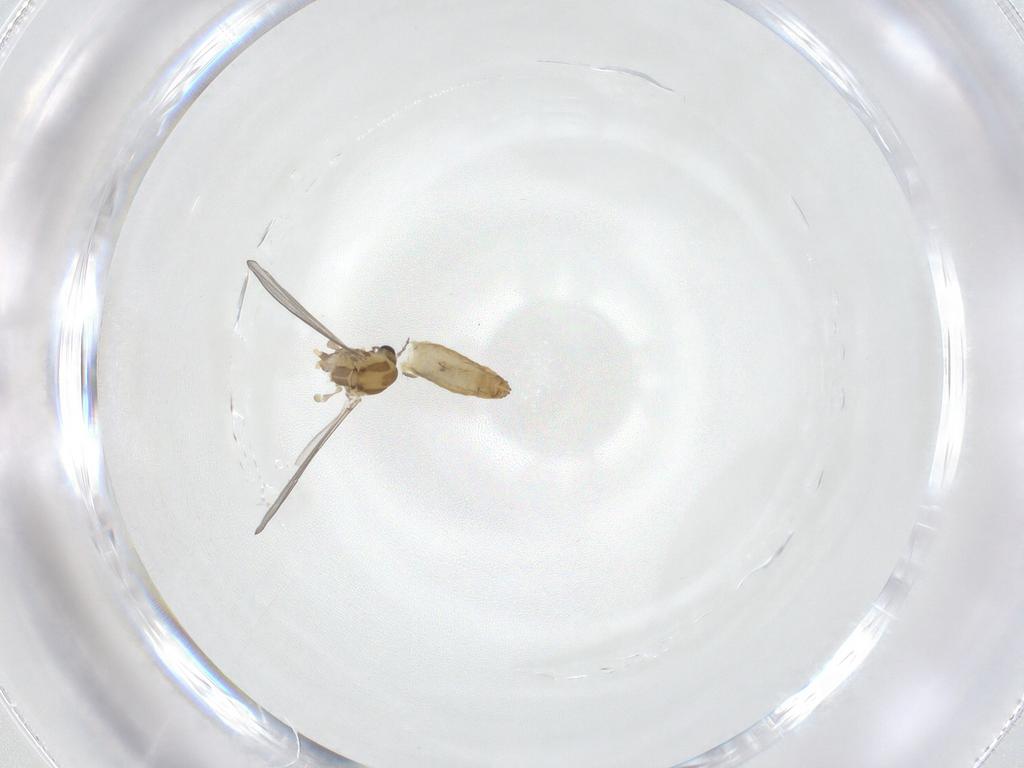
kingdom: Animalia
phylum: Arthropoda
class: Insecta
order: Diptera
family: Chironomidae
